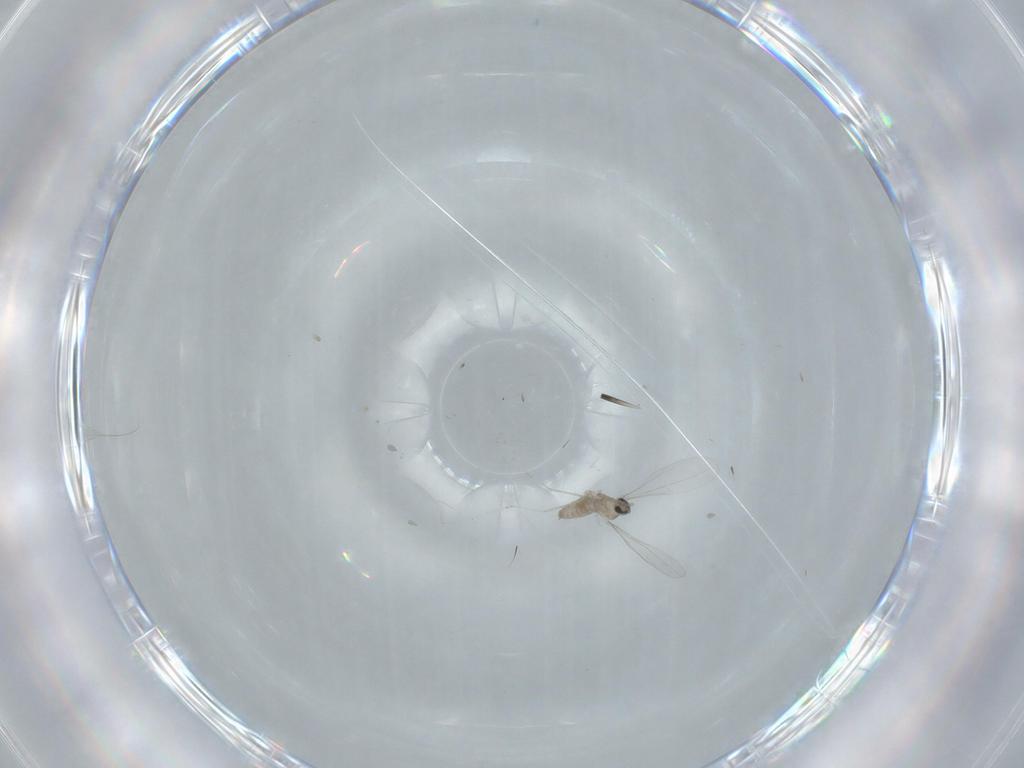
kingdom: Animalia
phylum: Arthropoda
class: Insecta
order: Diptera
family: Cecidomyiidae
